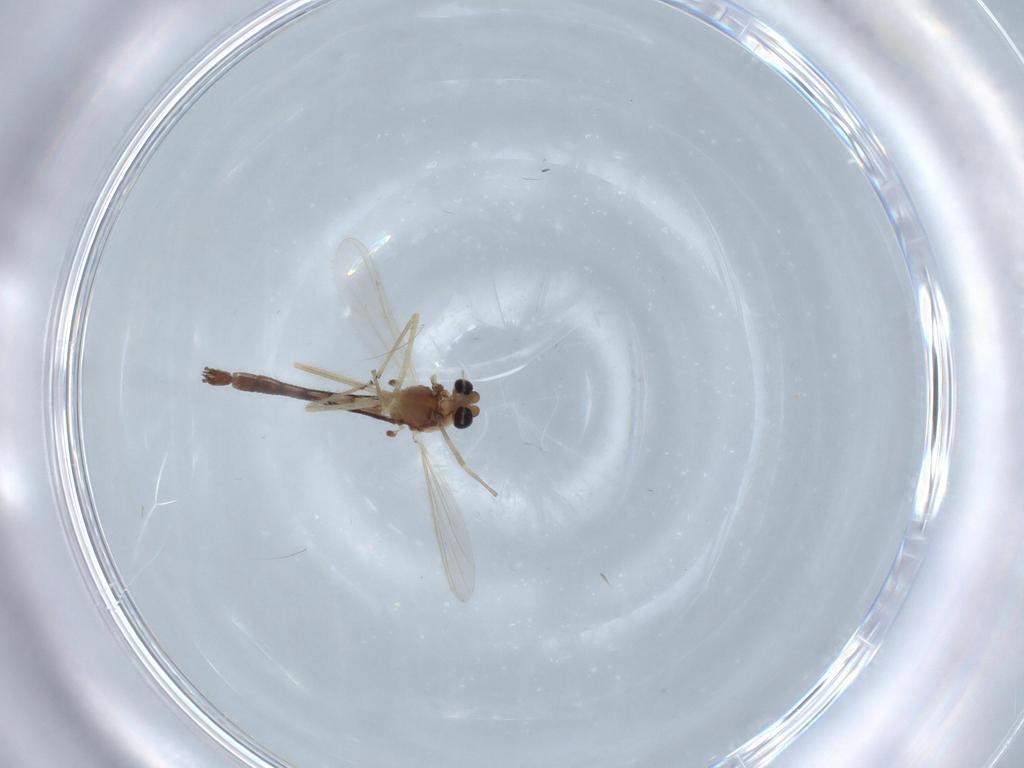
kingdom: Animalia
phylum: Arthropoda
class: Insecta
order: Diptera
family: Chironomidae
